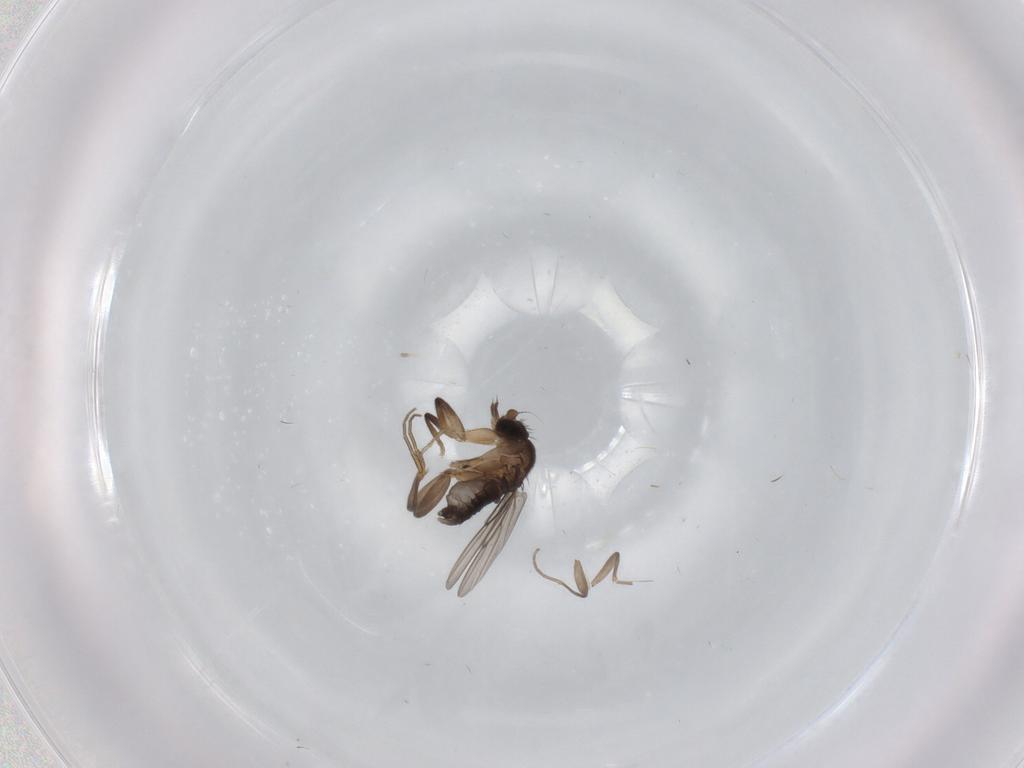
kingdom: Animalia
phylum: Arthropoda
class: Insecta
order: Diptera
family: Phoridae
